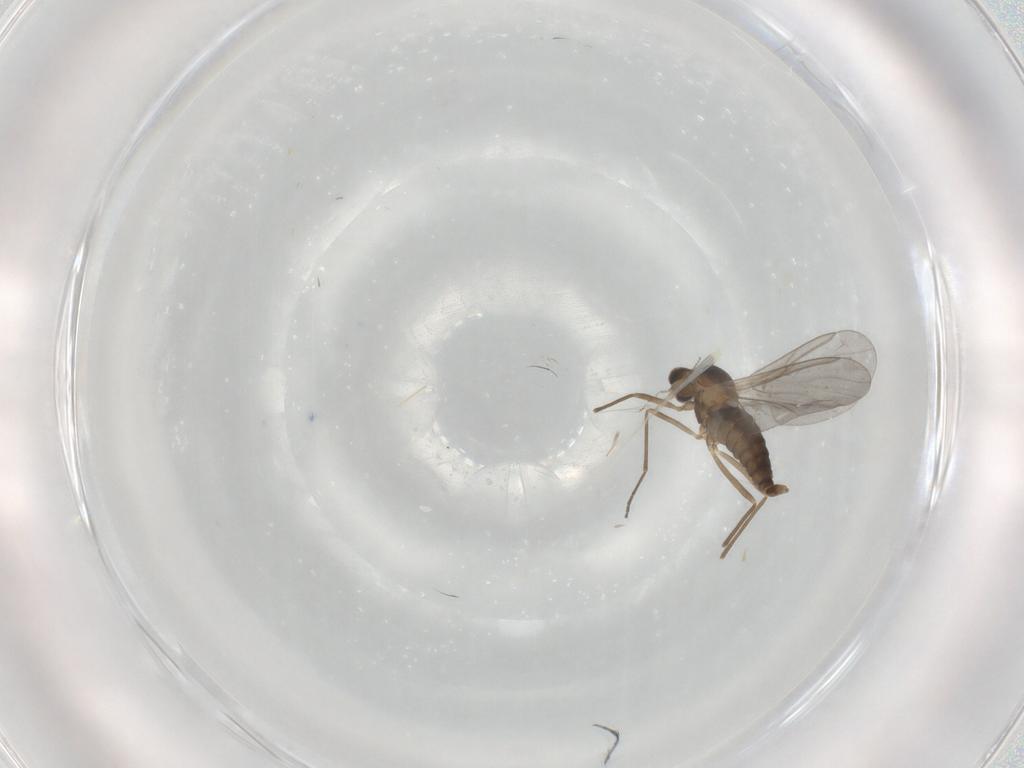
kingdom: Animalia
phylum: Arthropoda
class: Insecta
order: Diptera
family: Cecidomyiidae
